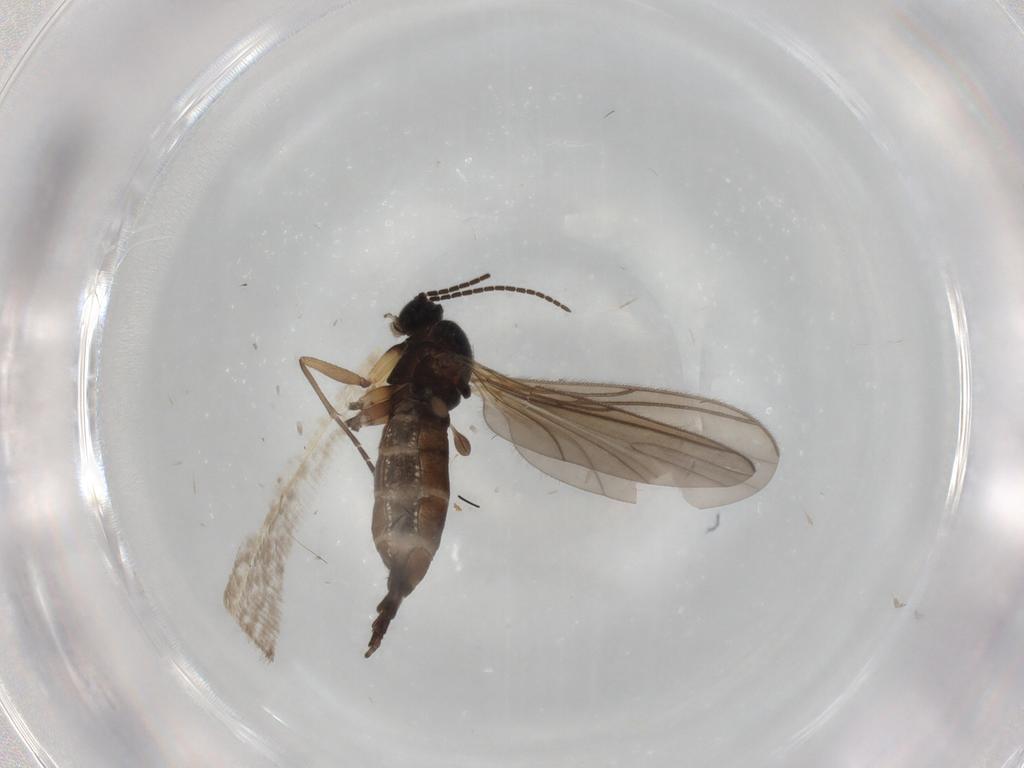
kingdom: Animalia
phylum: Arthropoda
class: Insecta
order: Diptera
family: Sciaridae
